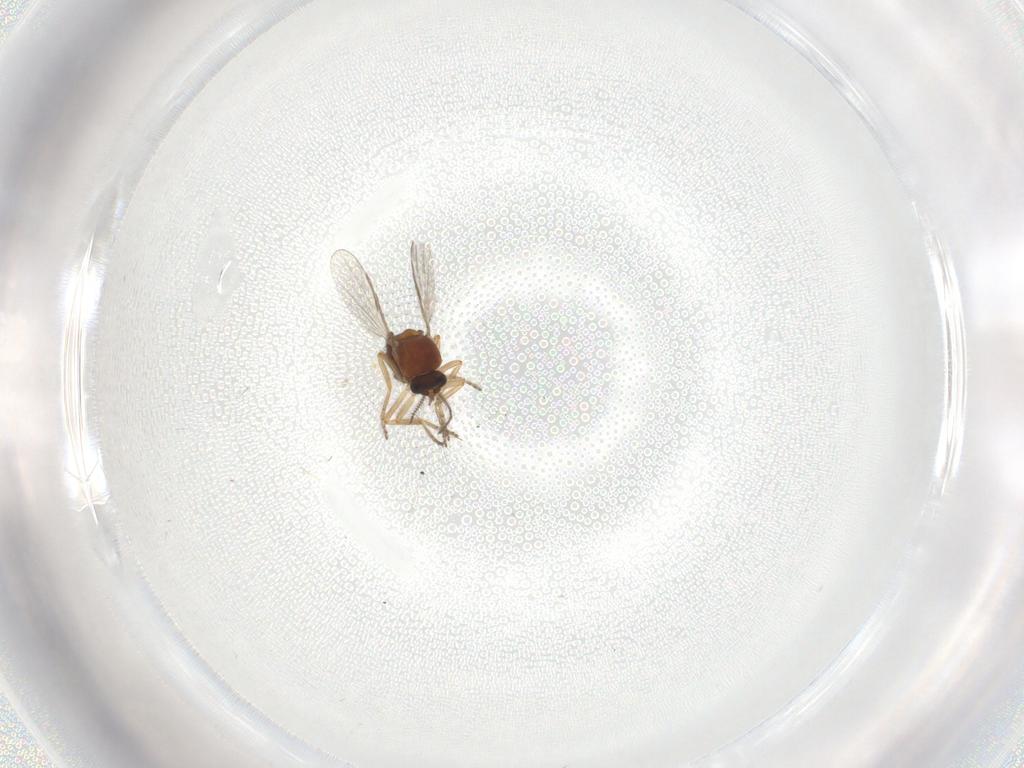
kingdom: Animalia
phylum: Arthropoda
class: Insecta
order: Diptera
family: Ceratopogonidae
